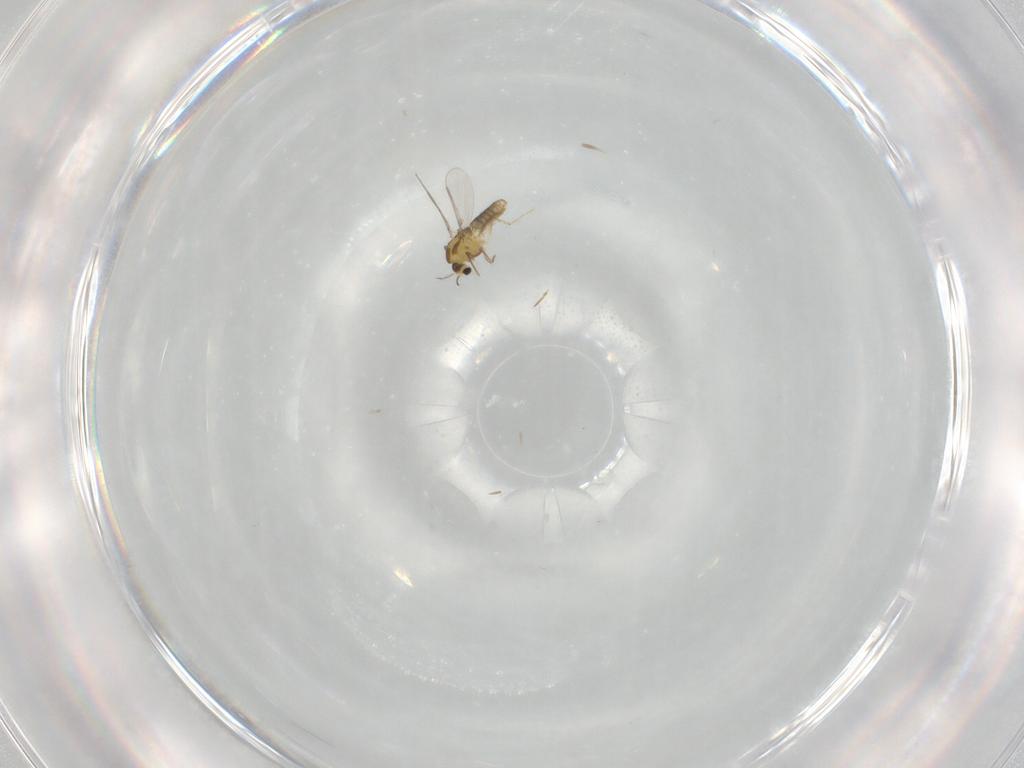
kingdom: Animalia
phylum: Arthropoda
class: Insecta
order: Diptera
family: Chironomidae
